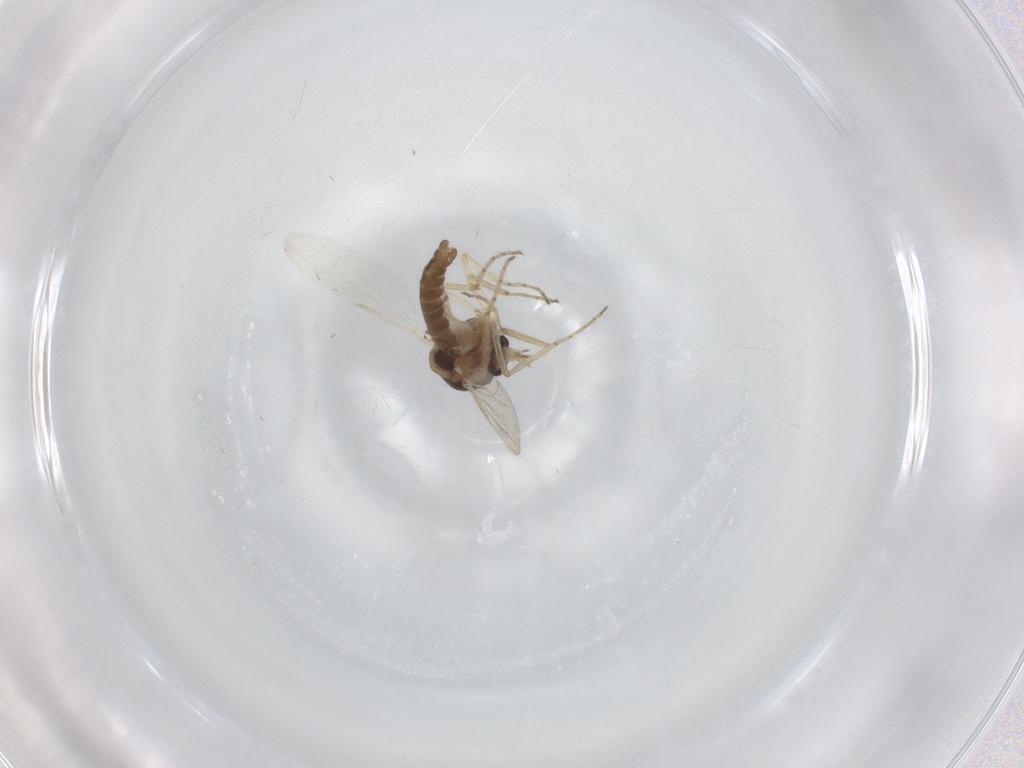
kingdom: Animalia
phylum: Arthropoda
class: Insecta
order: Diptera
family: Ceratopogonidae
